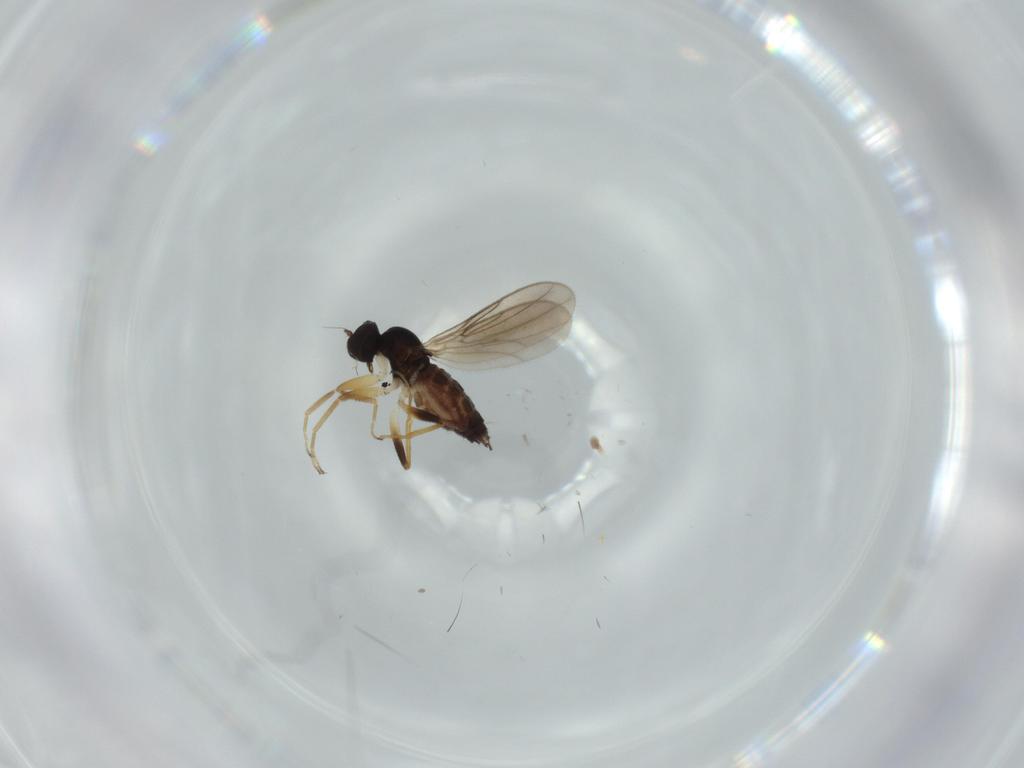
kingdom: Animalia
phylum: Arthropoda
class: Insecta
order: Diptera
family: Hybotidae
